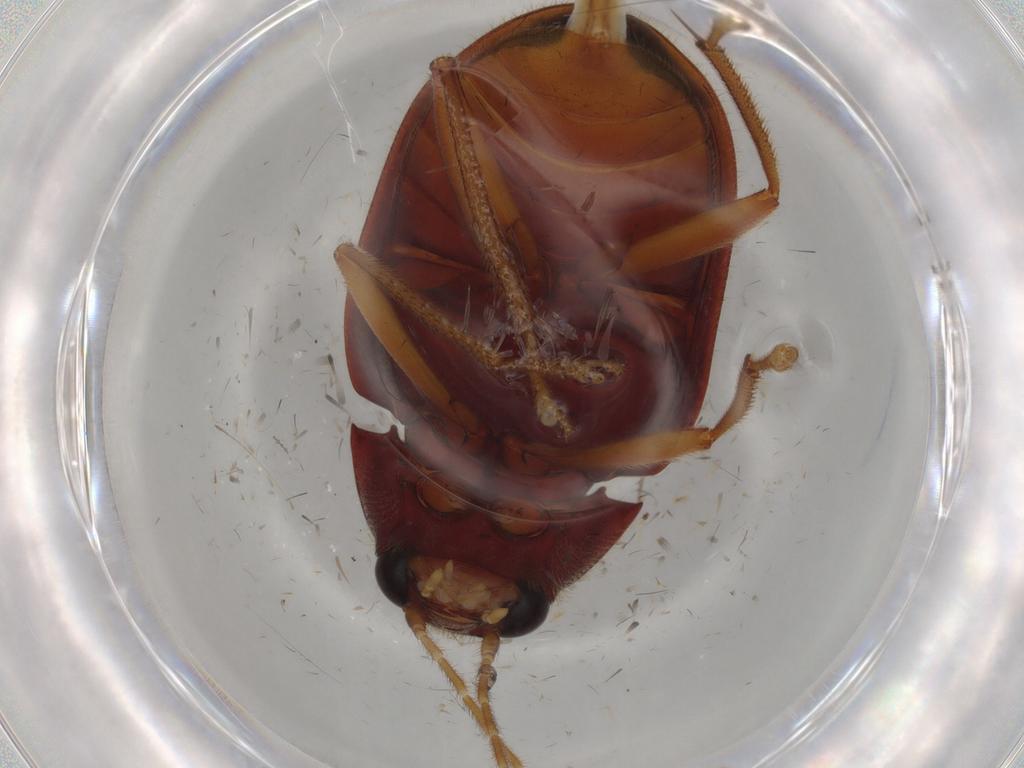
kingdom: Animalia
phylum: Arthropoda
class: Insecta
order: Coleoptera
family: Ptilodactylidae
